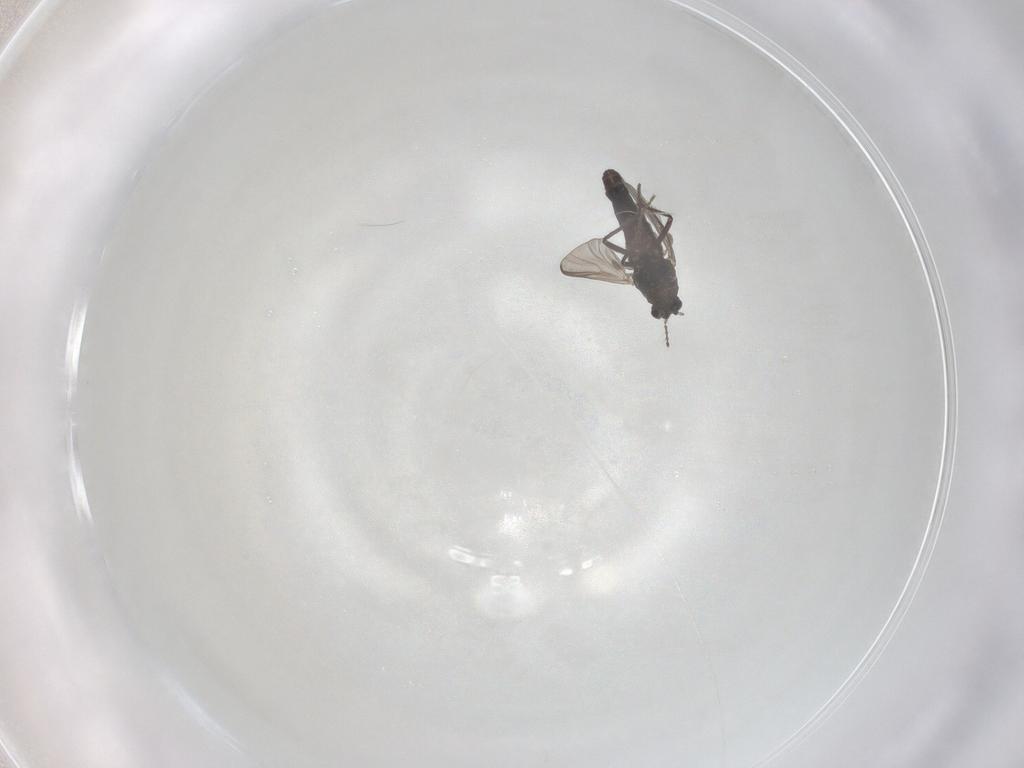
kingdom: Animalia
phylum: Arthropoda
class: Insecta
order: Diptera
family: Chironomidae
